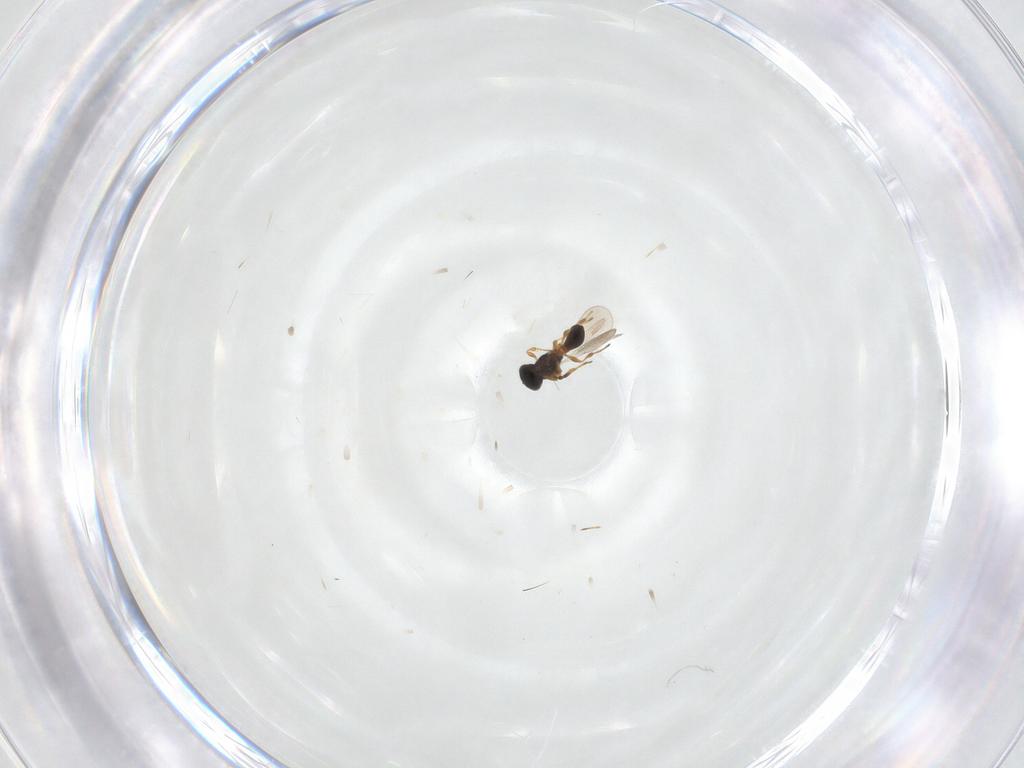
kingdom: Animalia
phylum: Arthropoda
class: Insecta
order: Hymenoptera
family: Platygastridae
